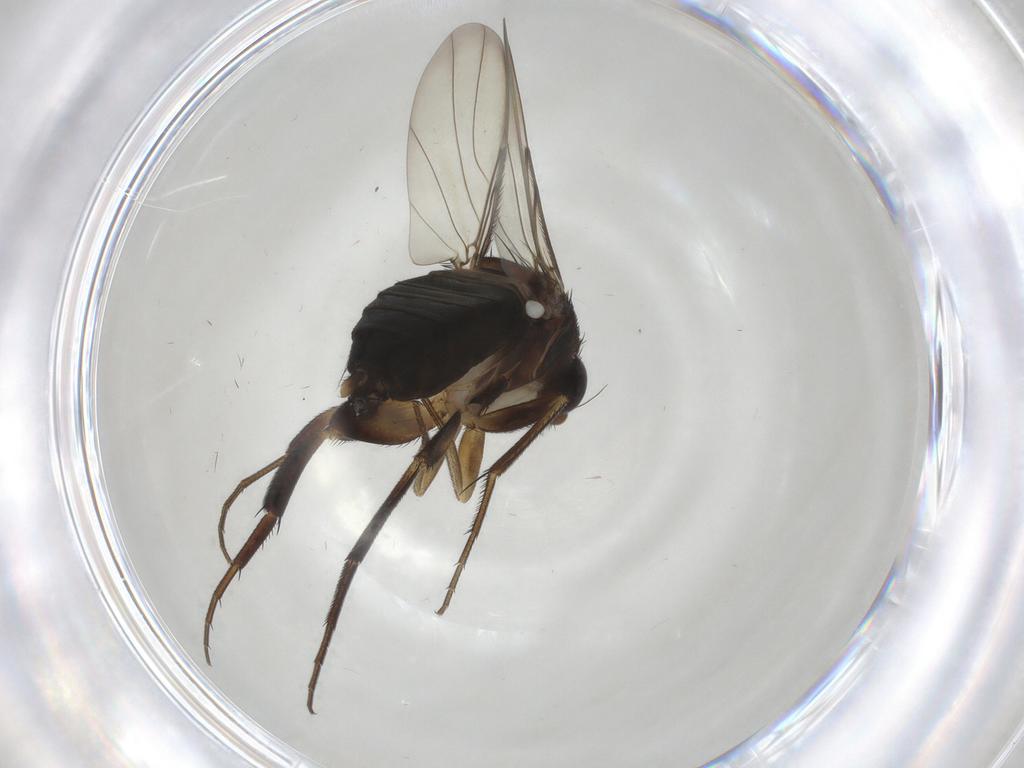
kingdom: Animalia
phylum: Arthropoda
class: Insecta
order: Diptera
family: Phoridae
